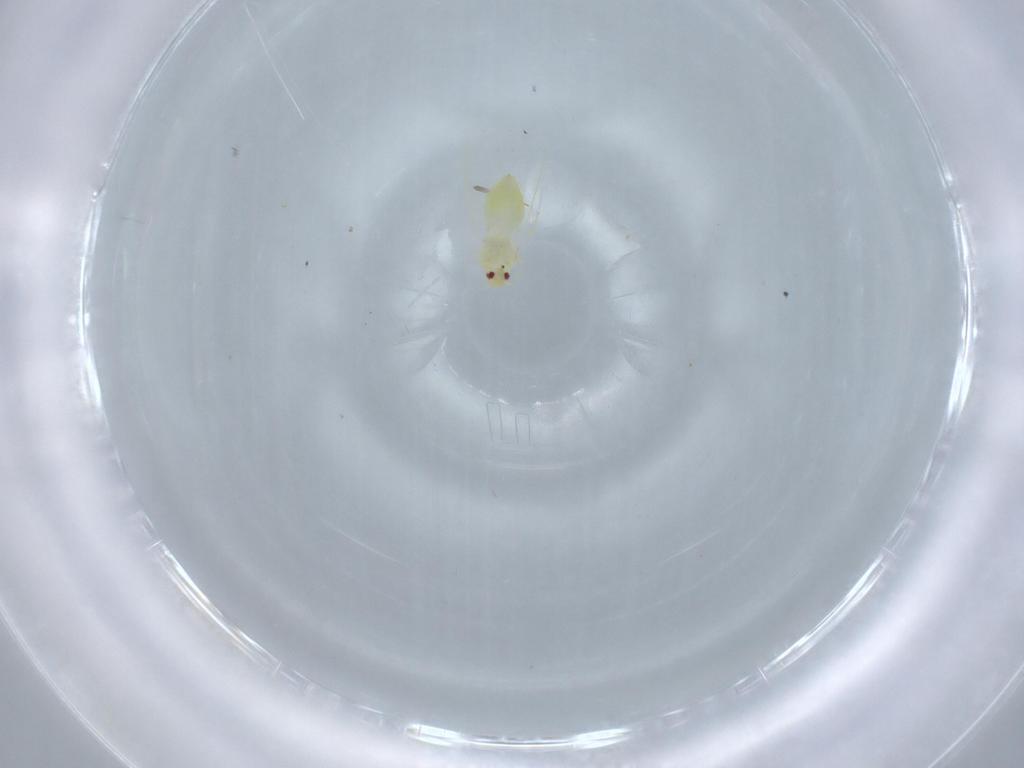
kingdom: Animalia
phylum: Arthropoda
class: Insecta
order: Hemiptera
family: Aleyrodidae
